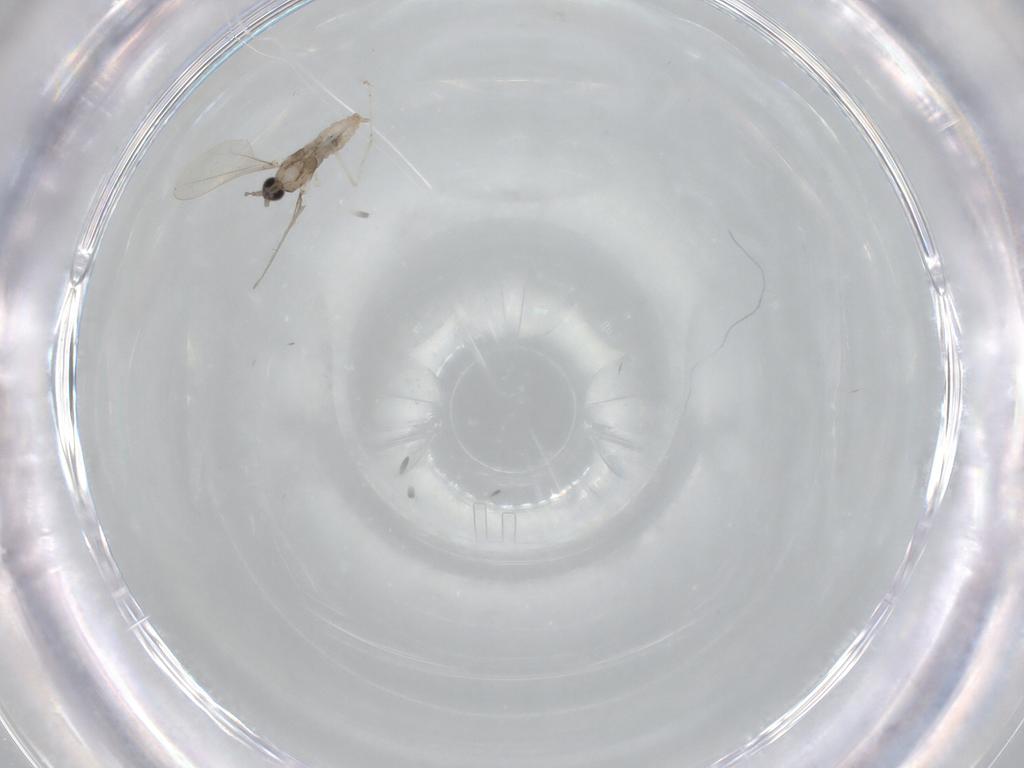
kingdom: Animalia
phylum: Arthropoda
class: Insecta
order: Diptera
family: Cecidomyiidae
